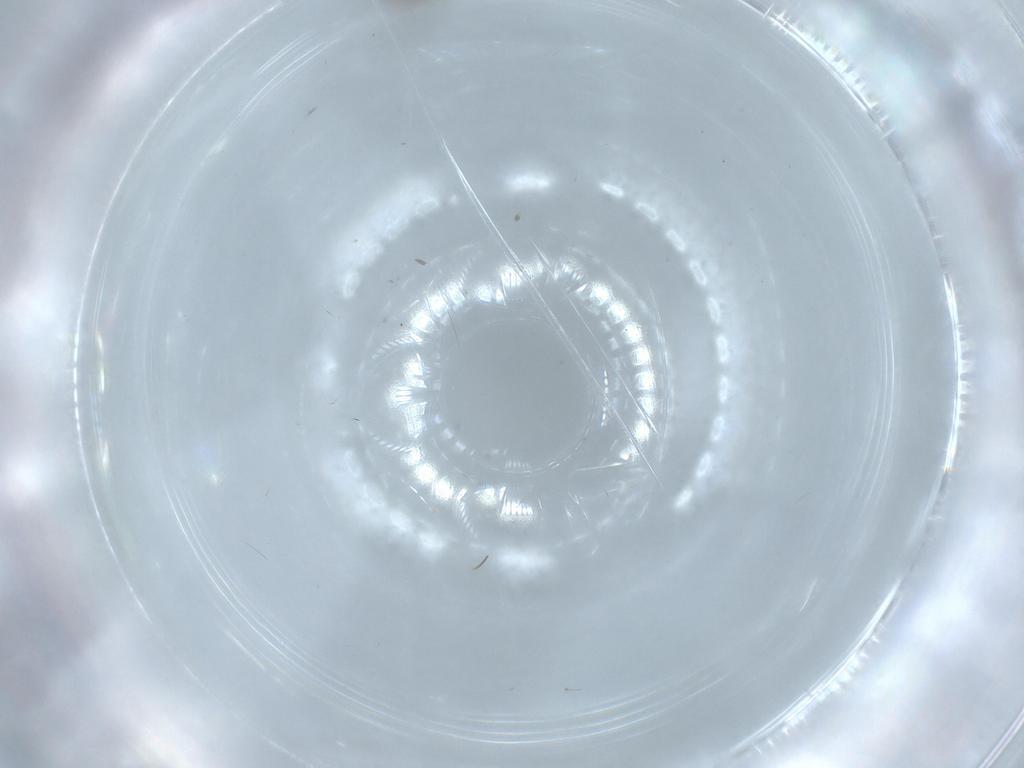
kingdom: Animalia
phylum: Arthropoda
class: Insecta
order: Diptera
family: Ceratopogonidae
